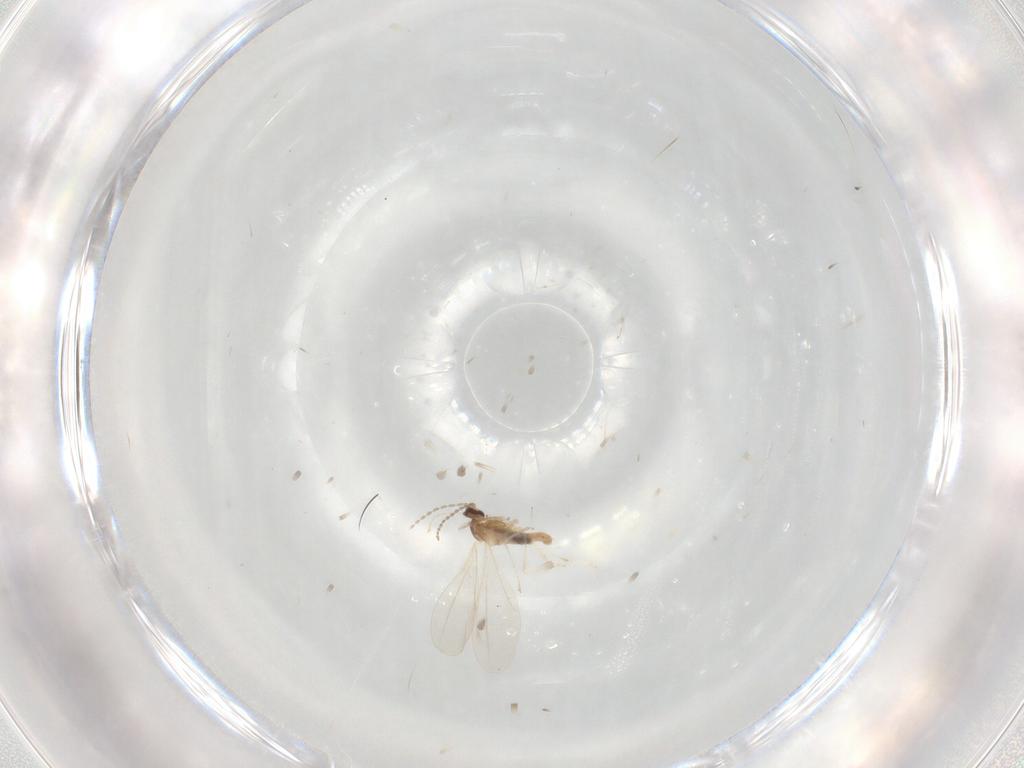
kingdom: Animalia
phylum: Arthropoda
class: Insecta
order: Diptera
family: Cecidomyiidae
